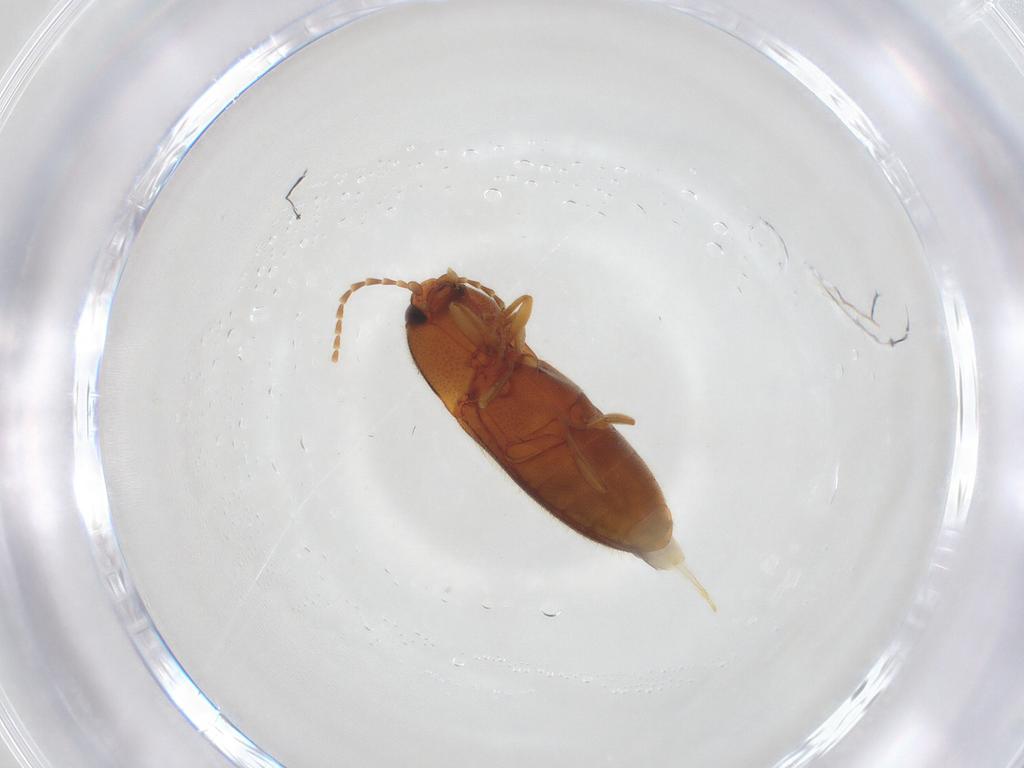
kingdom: Animalia
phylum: Arthropoda
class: Insecta
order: Coleoptera
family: Elateridae
